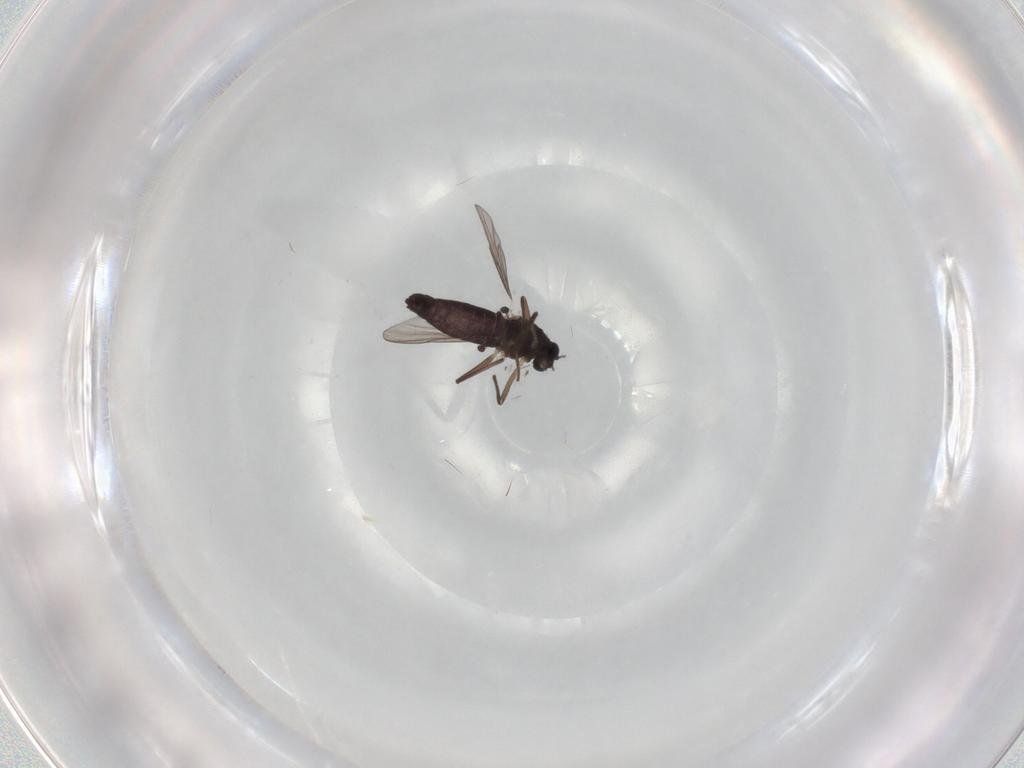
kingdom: Animalia
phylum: Arthropoda
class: Insecta
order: Diptera
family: Chironomidae
